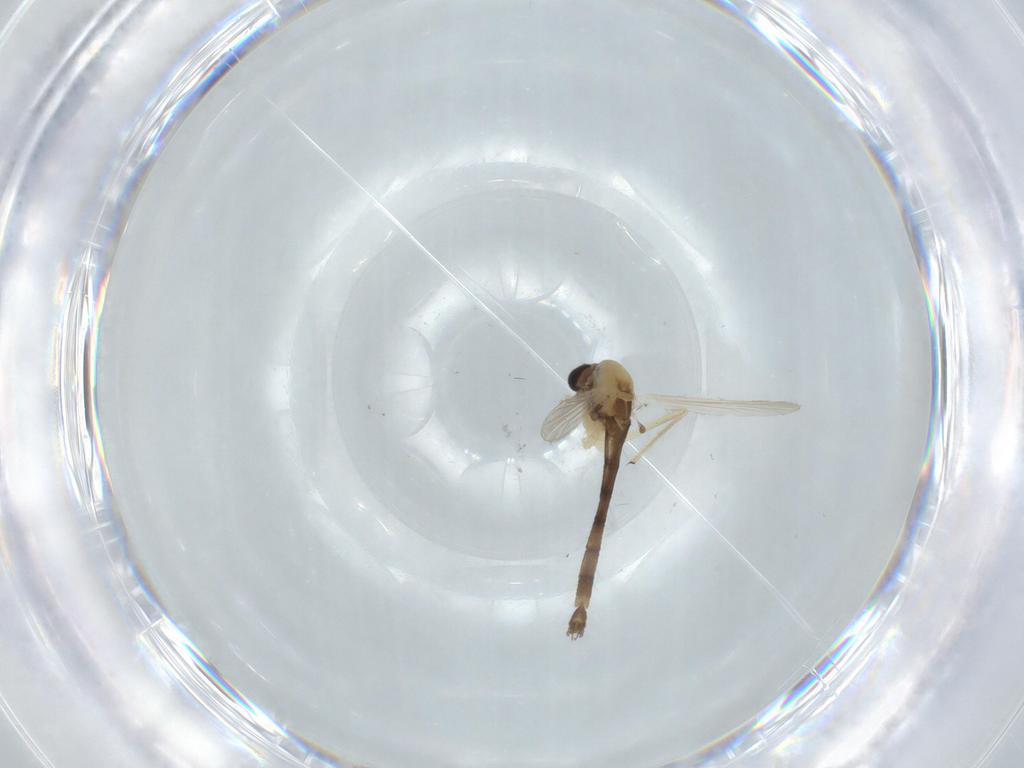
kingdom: Animalia
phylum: Arthropoda
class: Insecta
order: Diptera
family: Chironomidae
